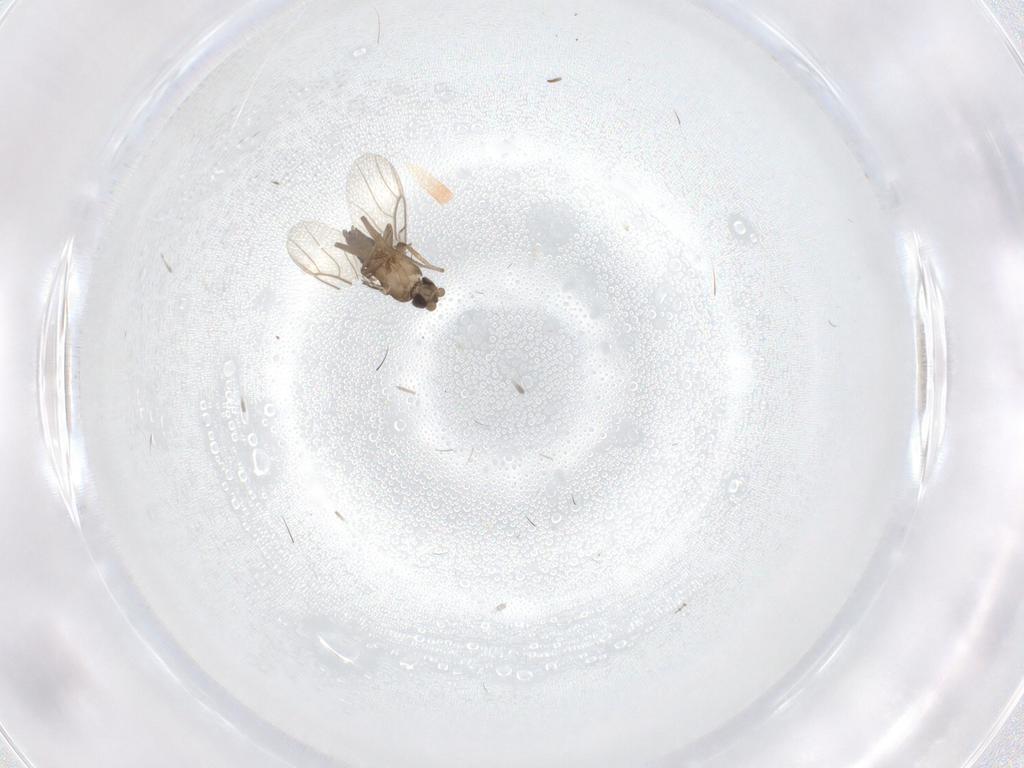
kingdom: Animalia
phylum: Arthropoda
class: Insecta
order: Diptera
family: Phoridae
